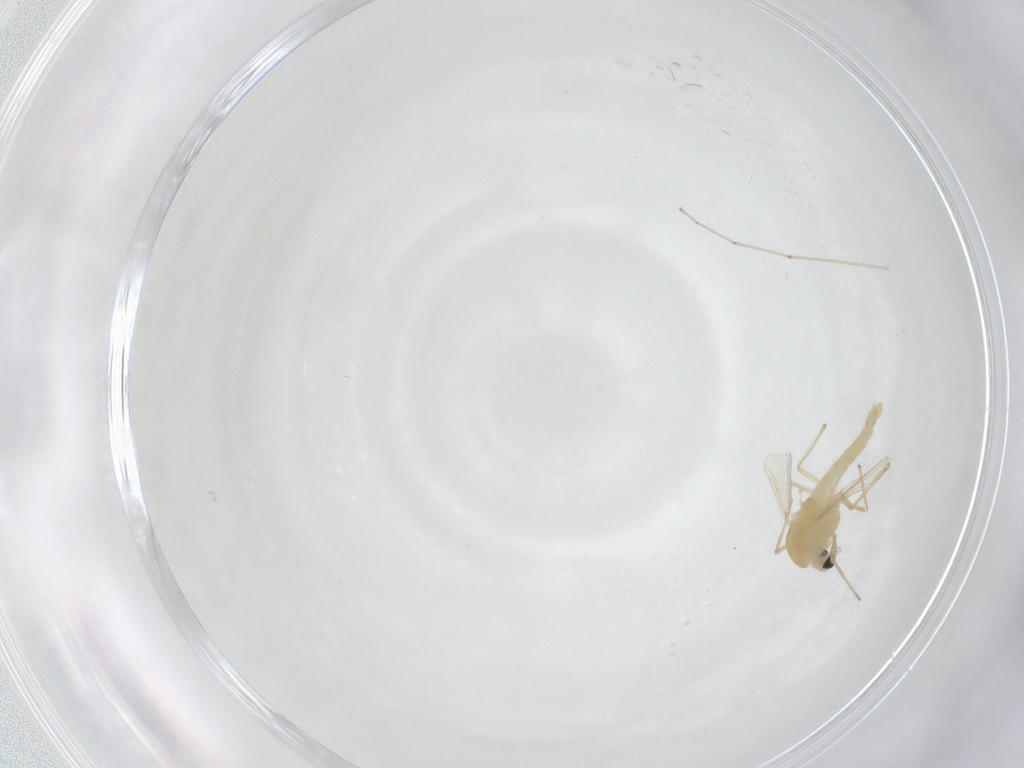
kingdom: Animalia
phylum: Arthropoda
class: Insecta
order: Diptera
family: Chironomidae
